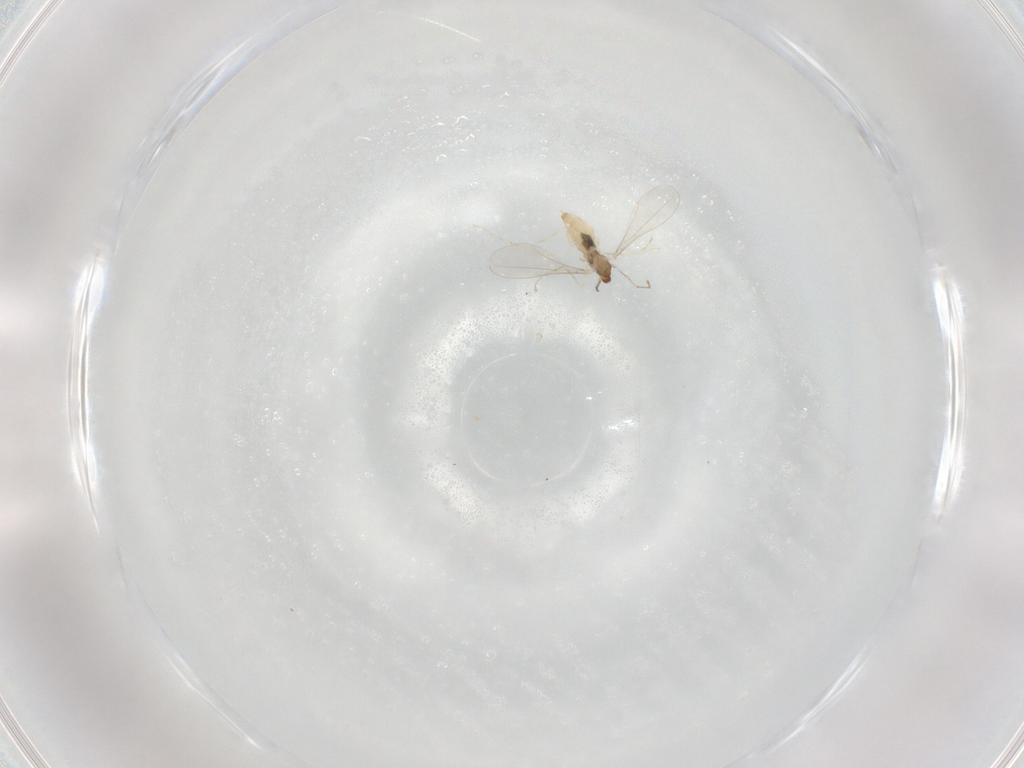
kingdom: Animalia
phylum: Arthropoda
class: Insecta
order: Diptera
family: Cecidomyiidae
